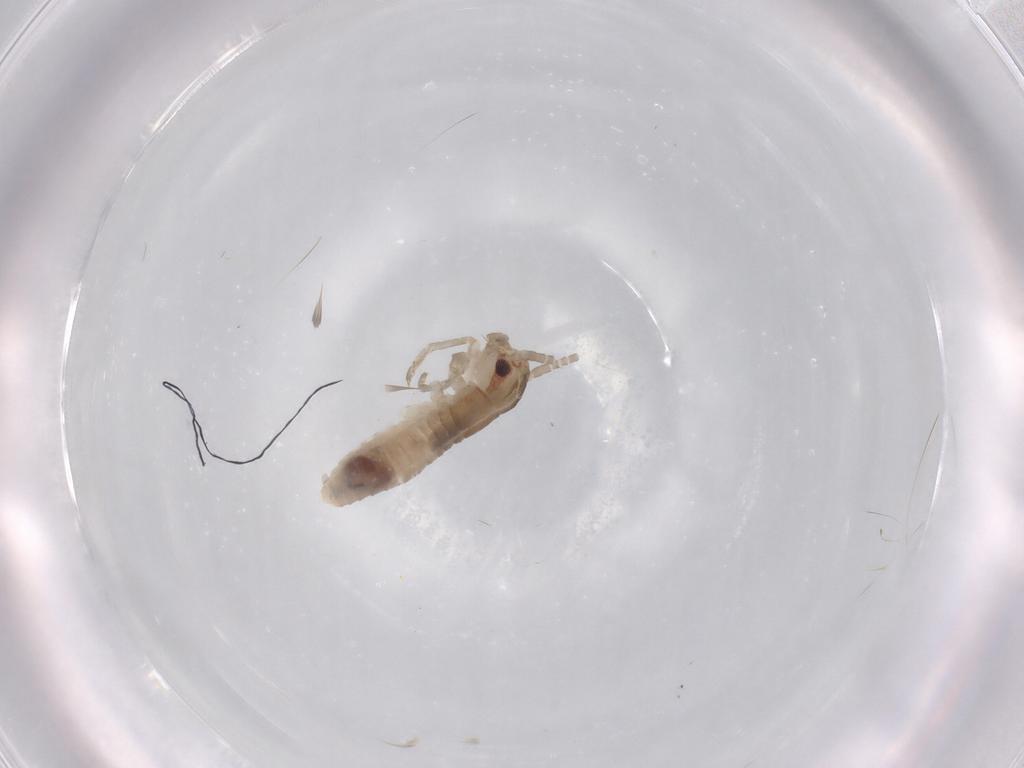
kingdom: Animalia
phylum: Arthropoda
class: Insecta
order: Orthoptera
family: Gryllidae
